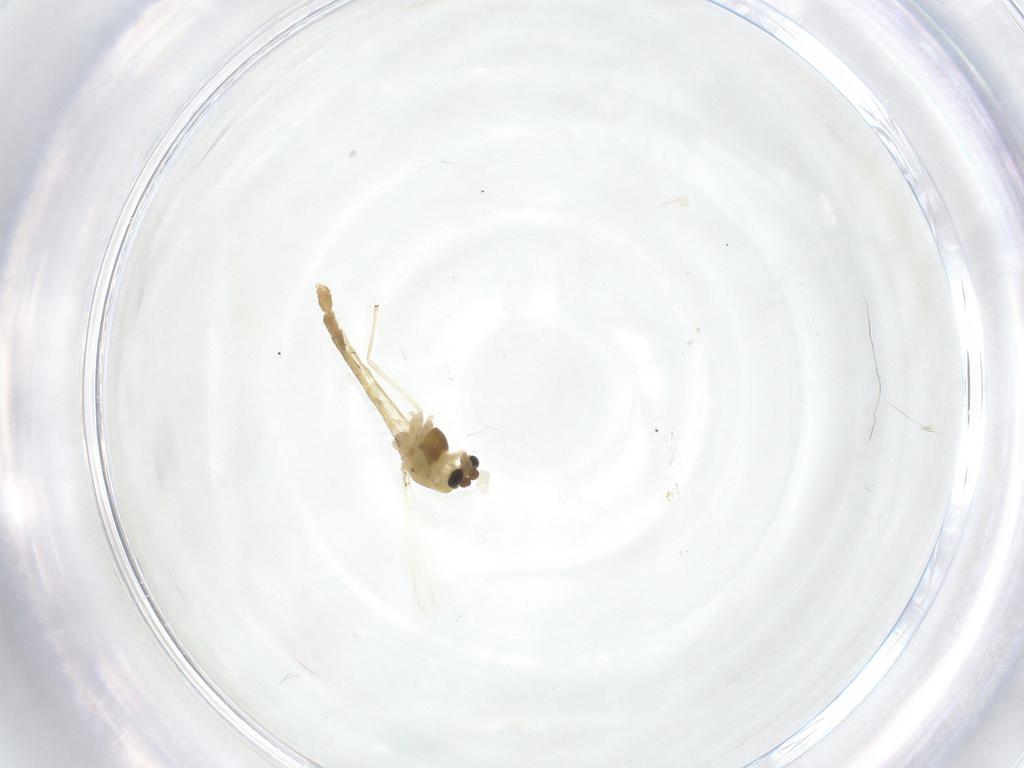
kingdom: Animalia
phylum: Arthropoda
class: Insecta
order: Diptera
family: Chironomidae
